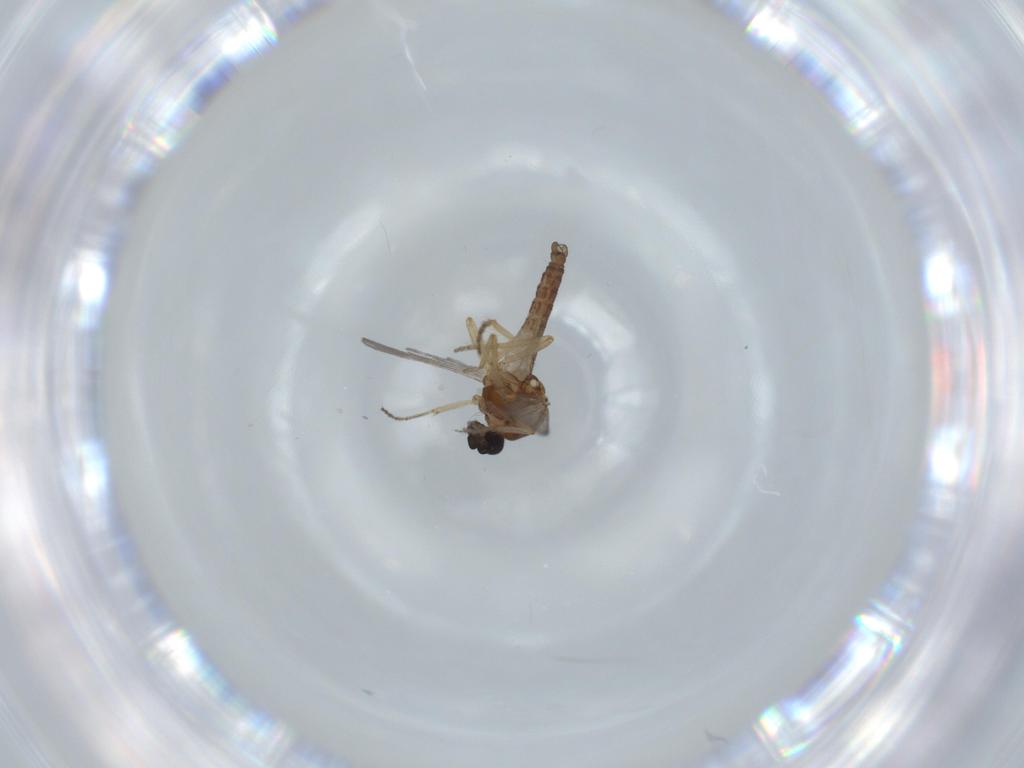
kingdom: Animalia
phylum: Arthropoda
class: Insecta
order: Diptera
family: Ceratopogonidae
